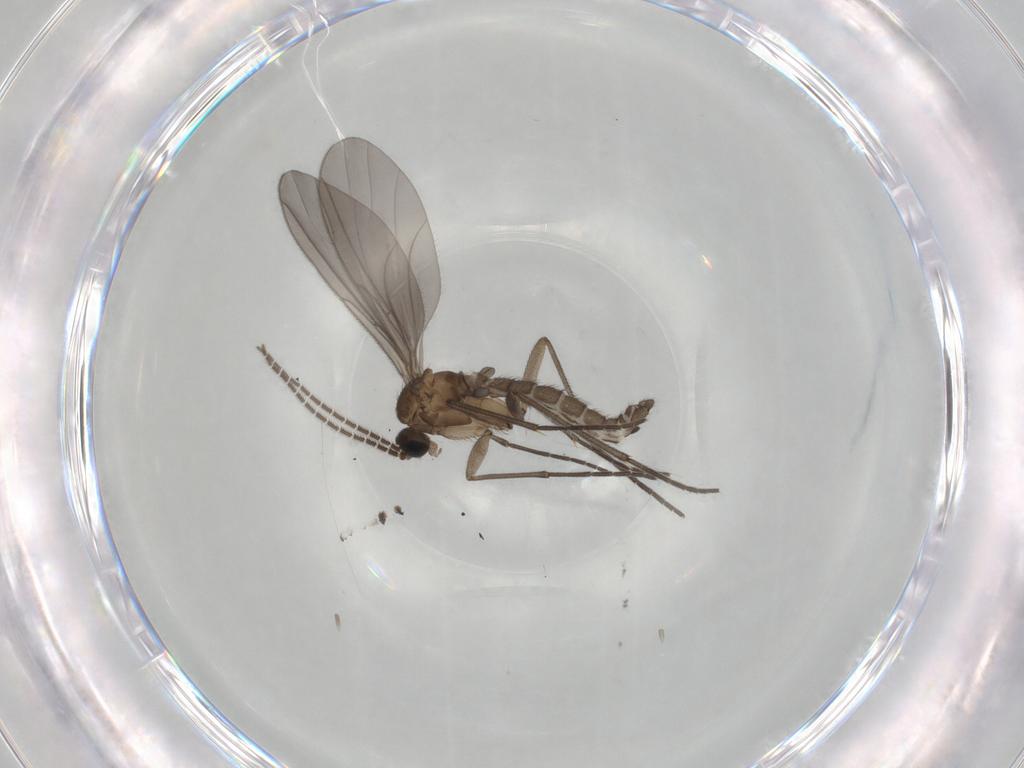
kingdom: Animalia
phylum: Arthropoda
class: Insecta
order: Diptera
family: Sciaridae
